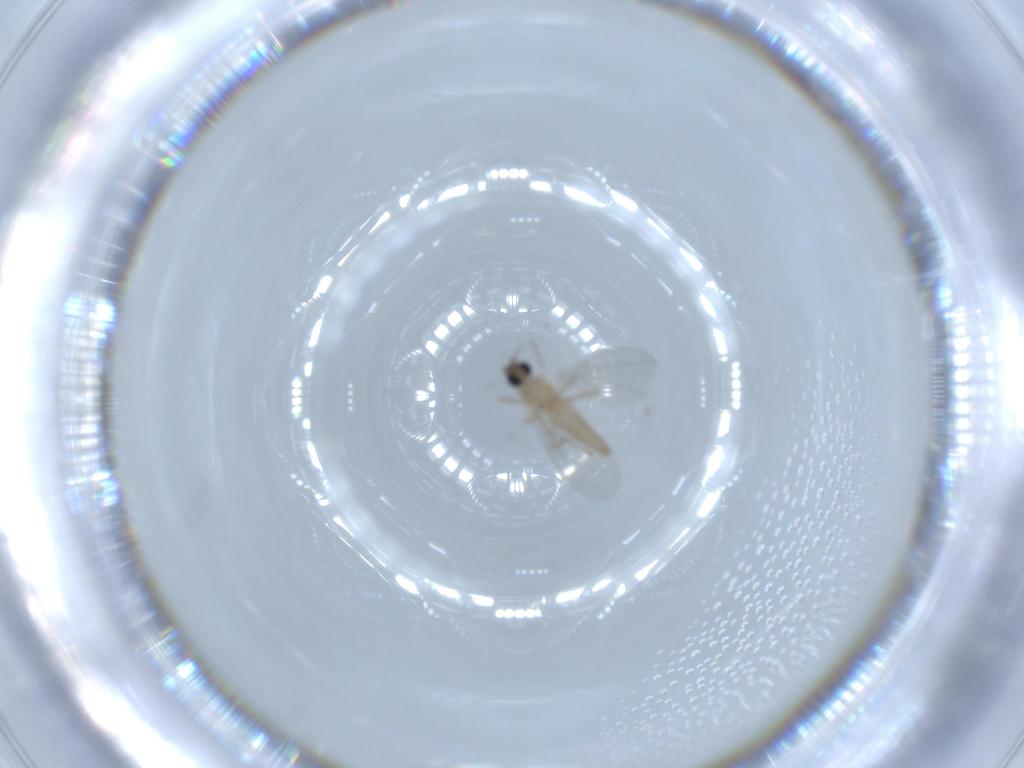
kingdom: Animalia
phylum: Arthropoda
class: Insecta
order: Diptera
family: Cecidomyiidae
